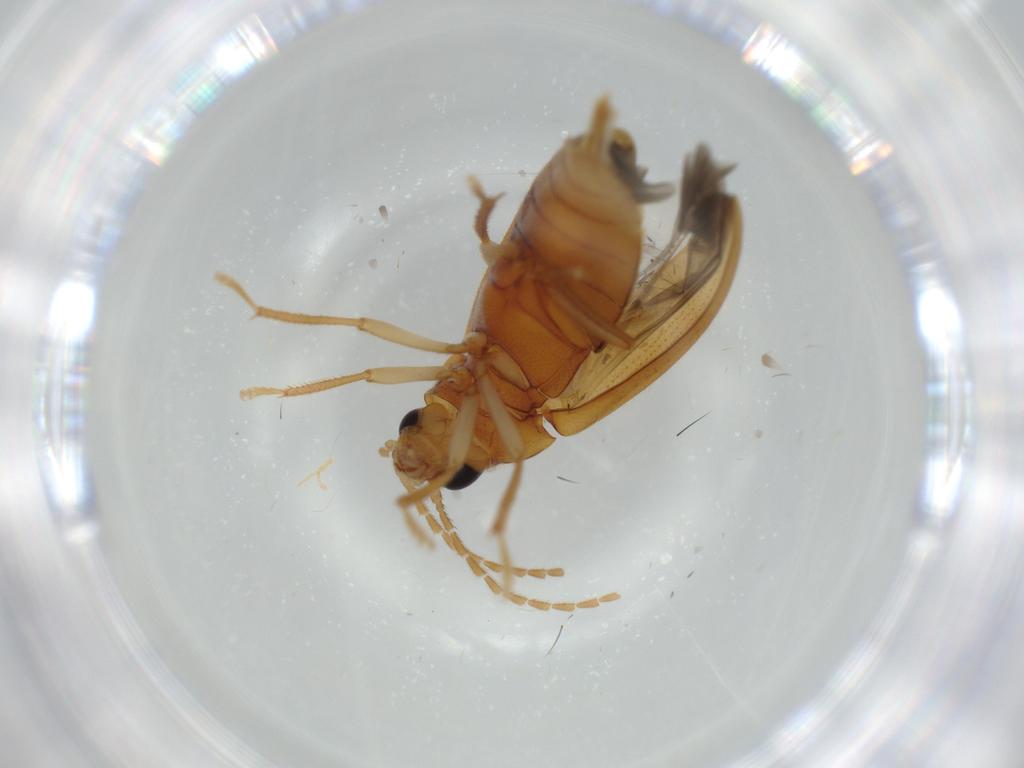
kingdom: Animalia
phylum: Arthropoda
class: Insecta
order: Coleoptera
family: Ptilodactylidae
